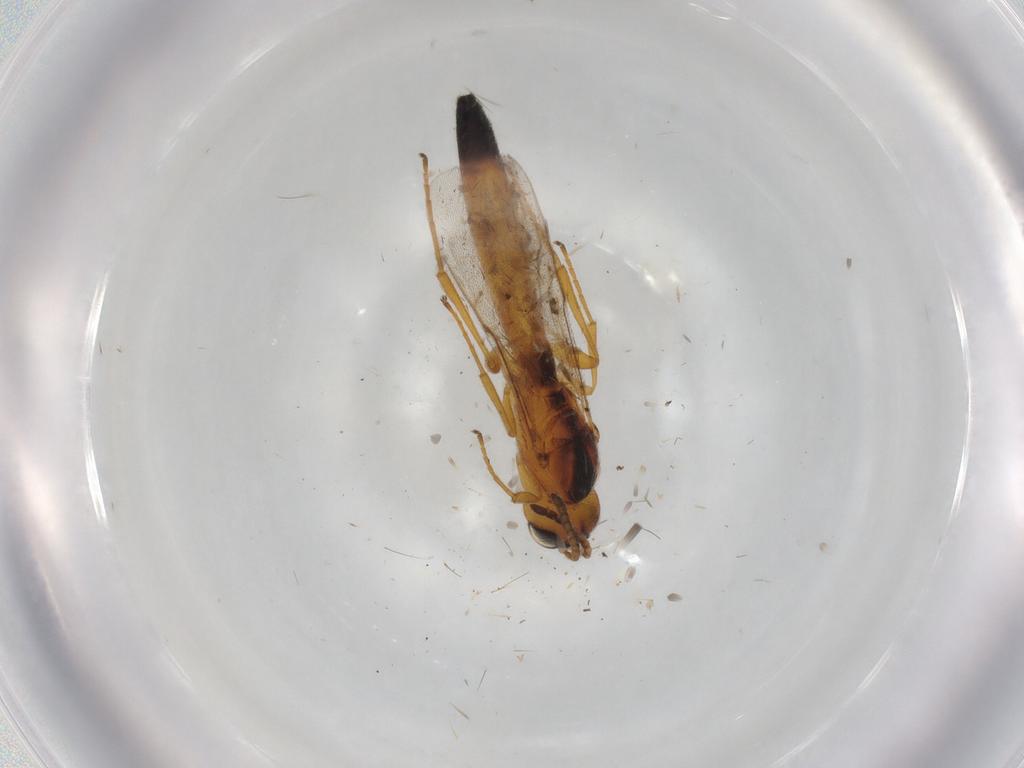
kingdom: Animalia
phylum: Arthropoda
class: Insecta
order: Hymenoptera
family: Scelionidae
